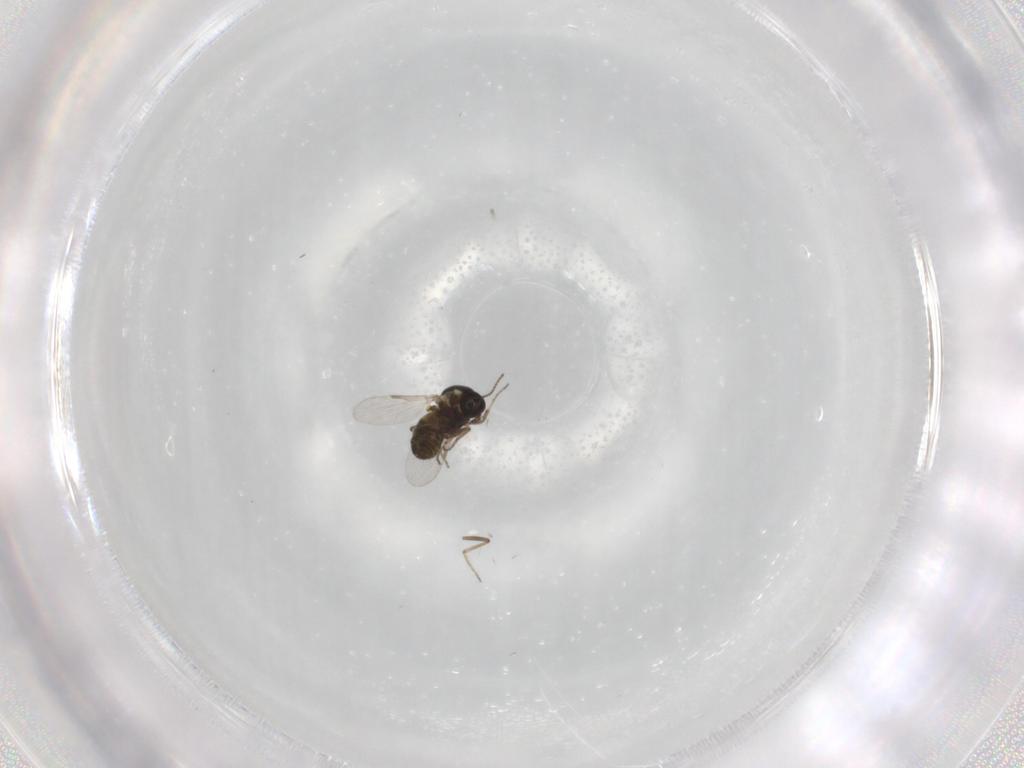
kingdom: Animalia
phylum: Arthropoda
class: Insecta
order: Diptera
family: Ceratopogonidae
